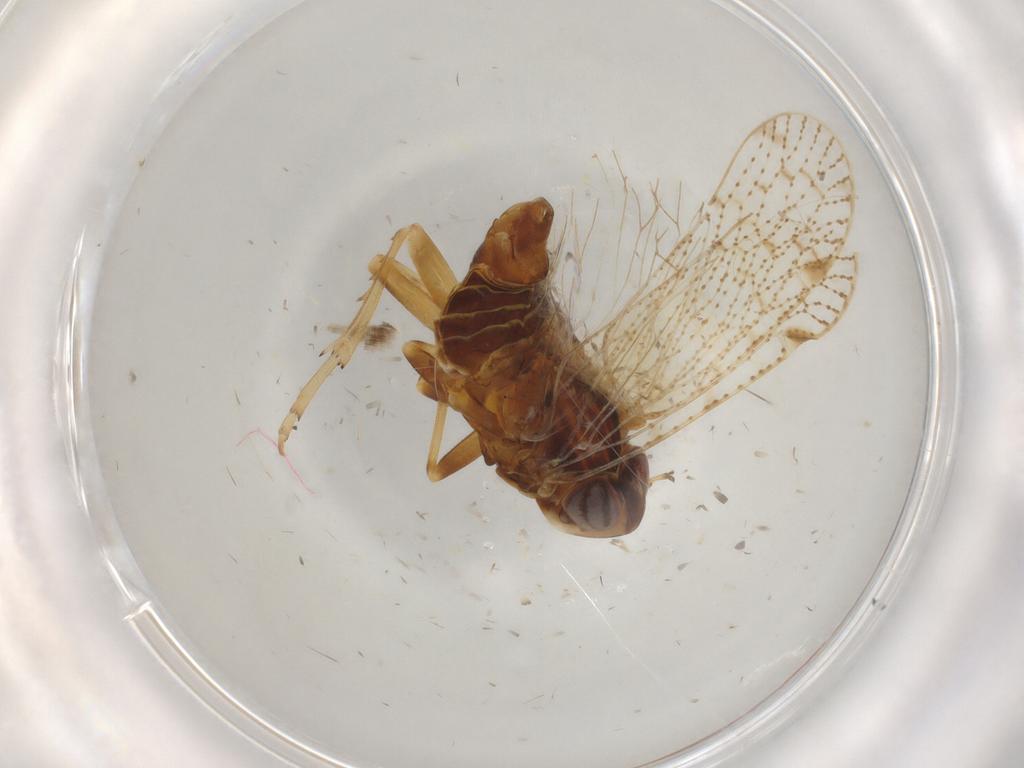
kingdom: Animalia
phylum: Arthropoda
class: Insecta
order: Hemiptera
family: Cixiidae
